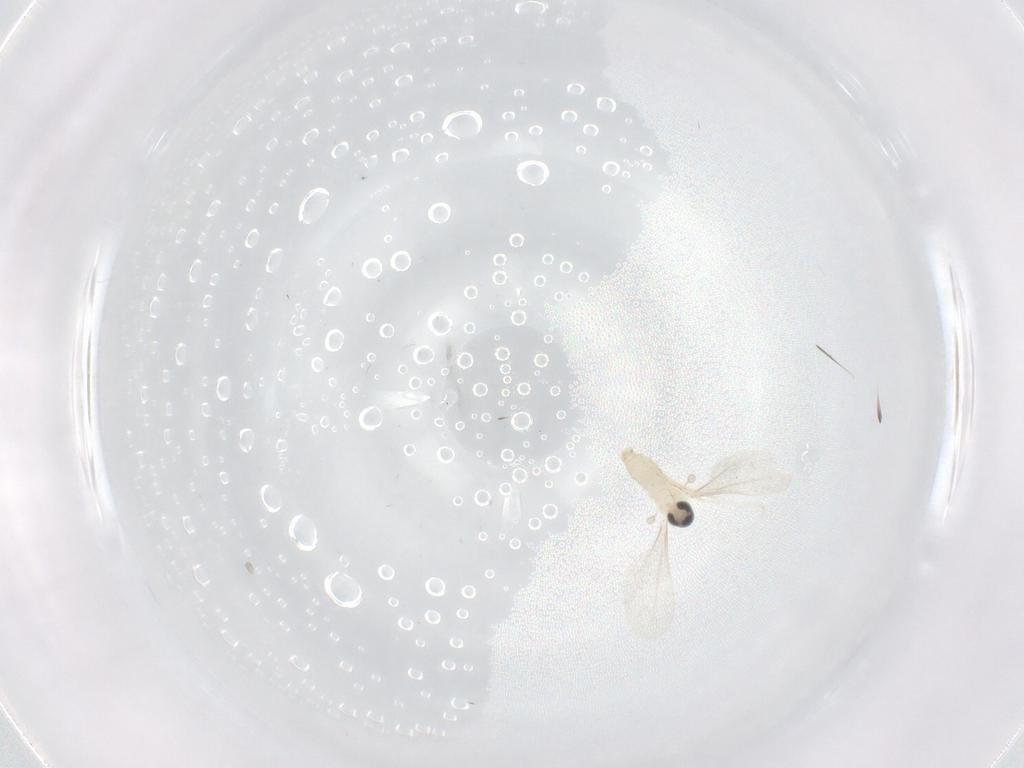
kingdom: Animalia
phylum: Arthropoda
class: Insecta
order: Diptera
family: Cecidomyiidae
